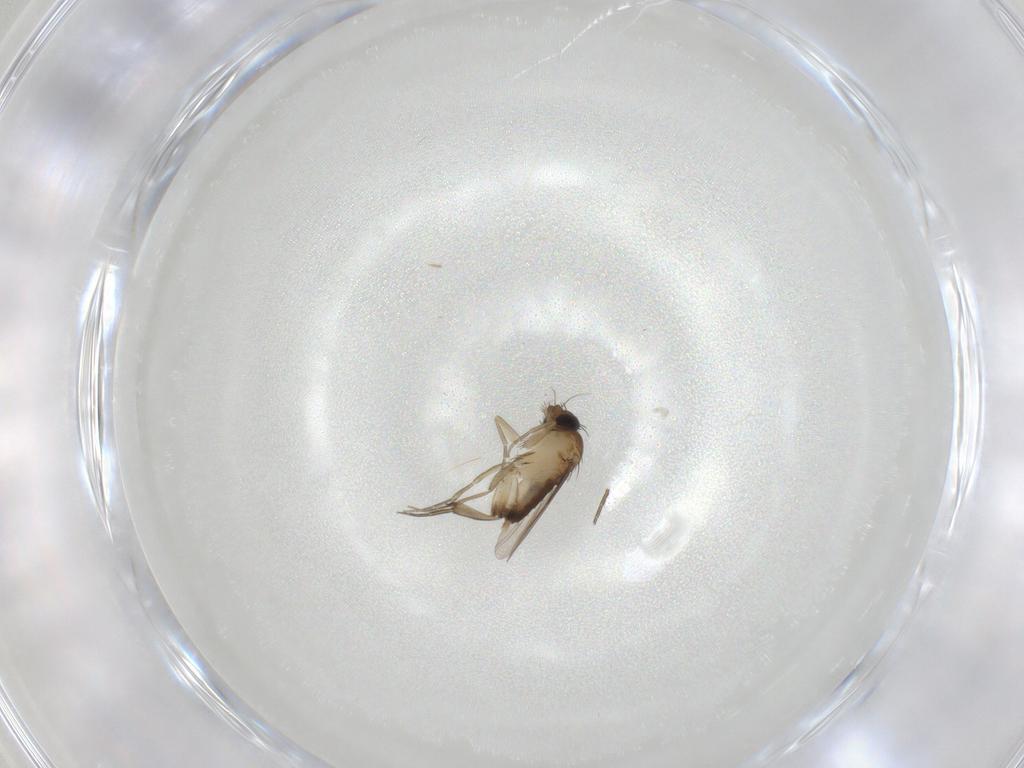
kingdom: Animalia
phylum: Arthropoda
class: Insecta
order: Diptera
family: Phoridae
